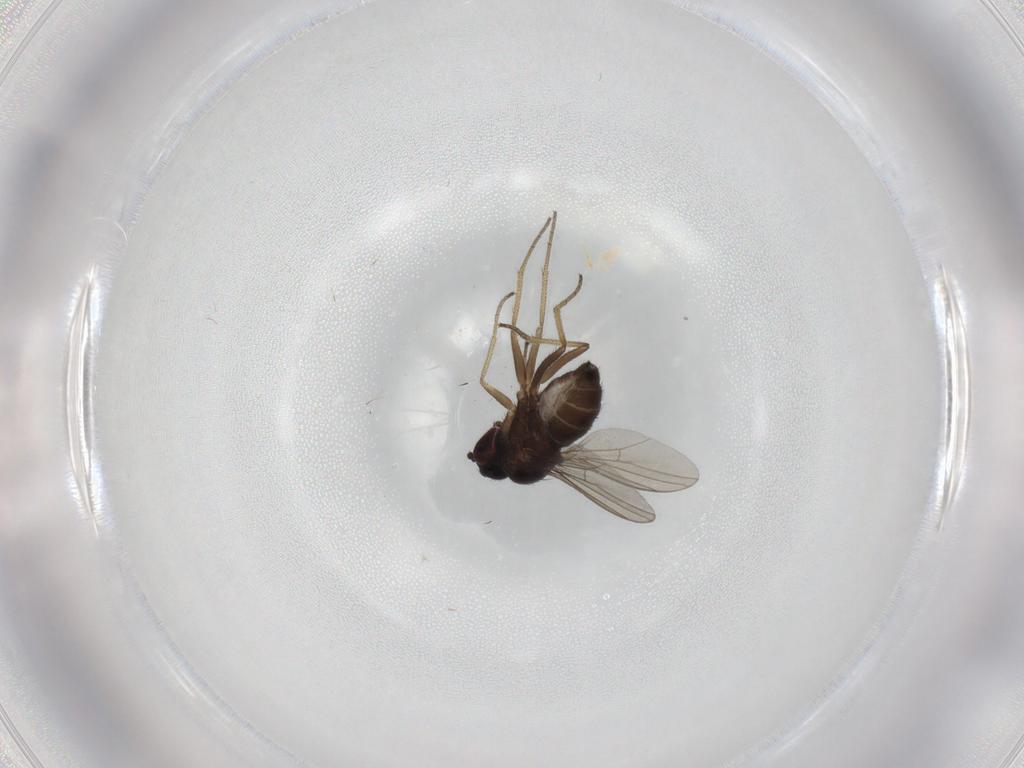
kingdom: Animalia
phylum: Arthropoda
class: Insecta
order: Diptera
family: Dolichopodidae
